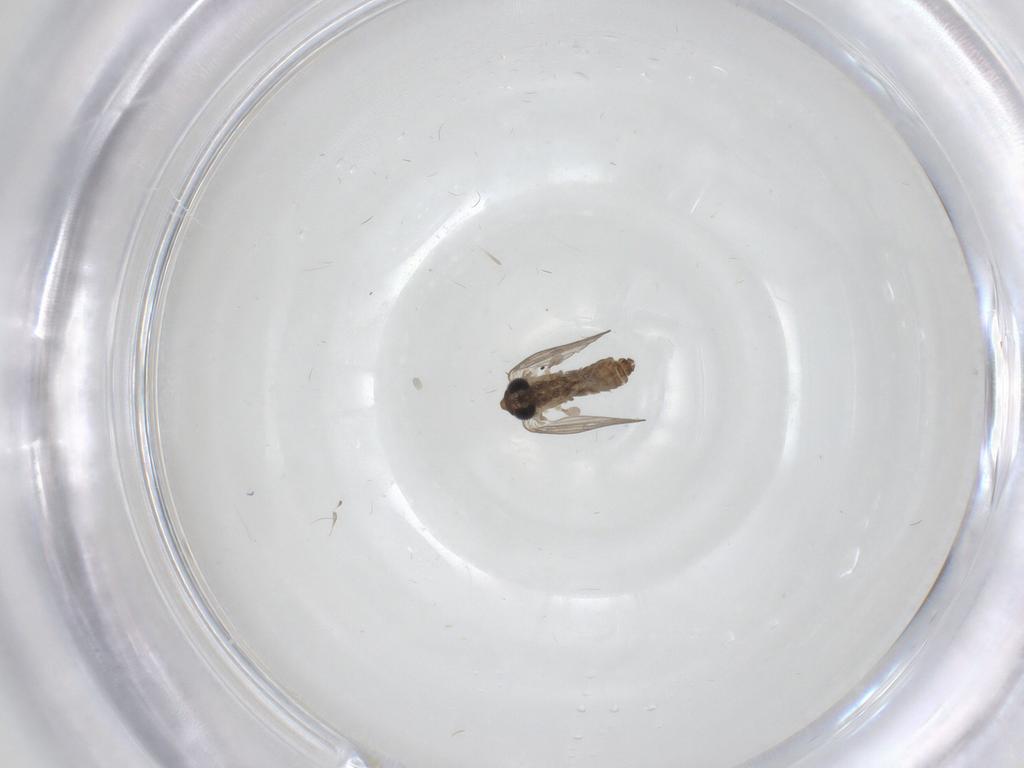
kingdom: Animalia
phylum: Arthropoda
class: Insecta
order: Diptera
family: Psychodidae
